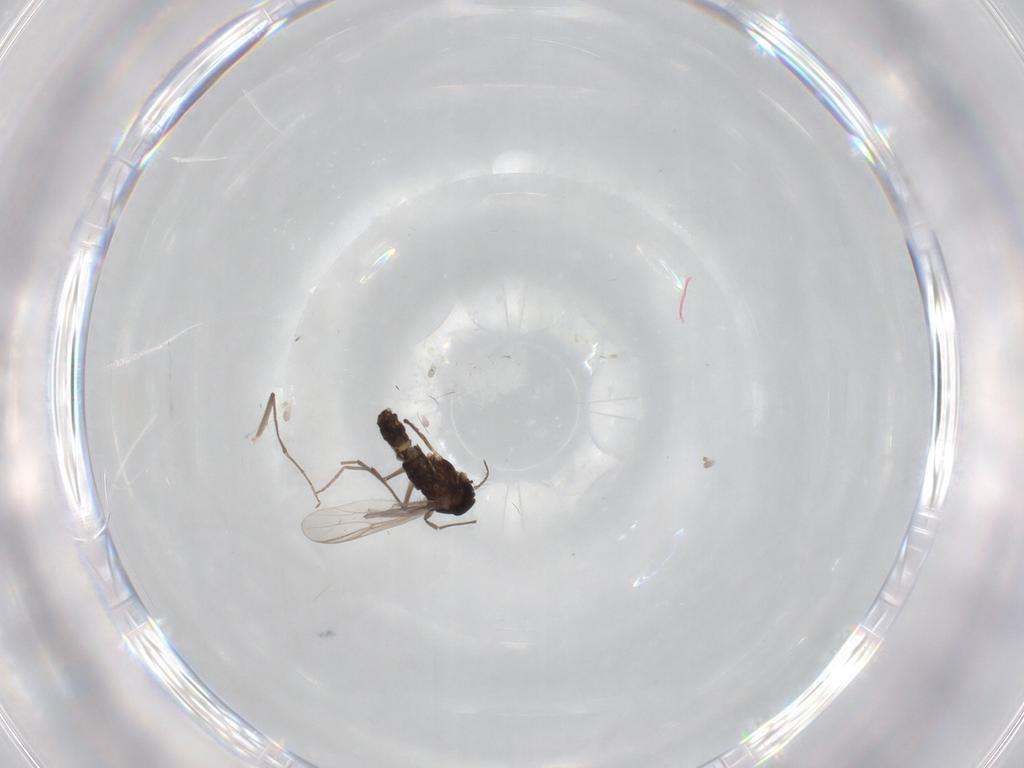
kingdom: Animalia
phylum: Arthropoda
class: Insecta
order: Diptera
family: Chironomidae
